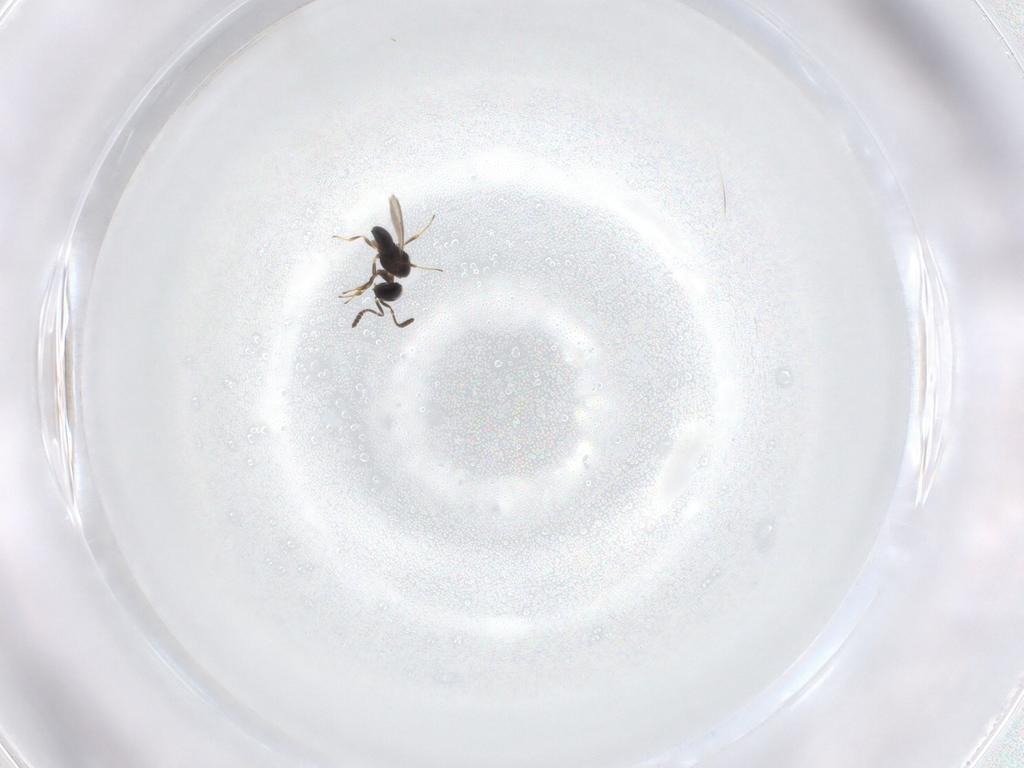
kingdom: Animalia
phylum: Arthropoda
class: Insecta
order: Hymenoptera
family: Scelionidae
